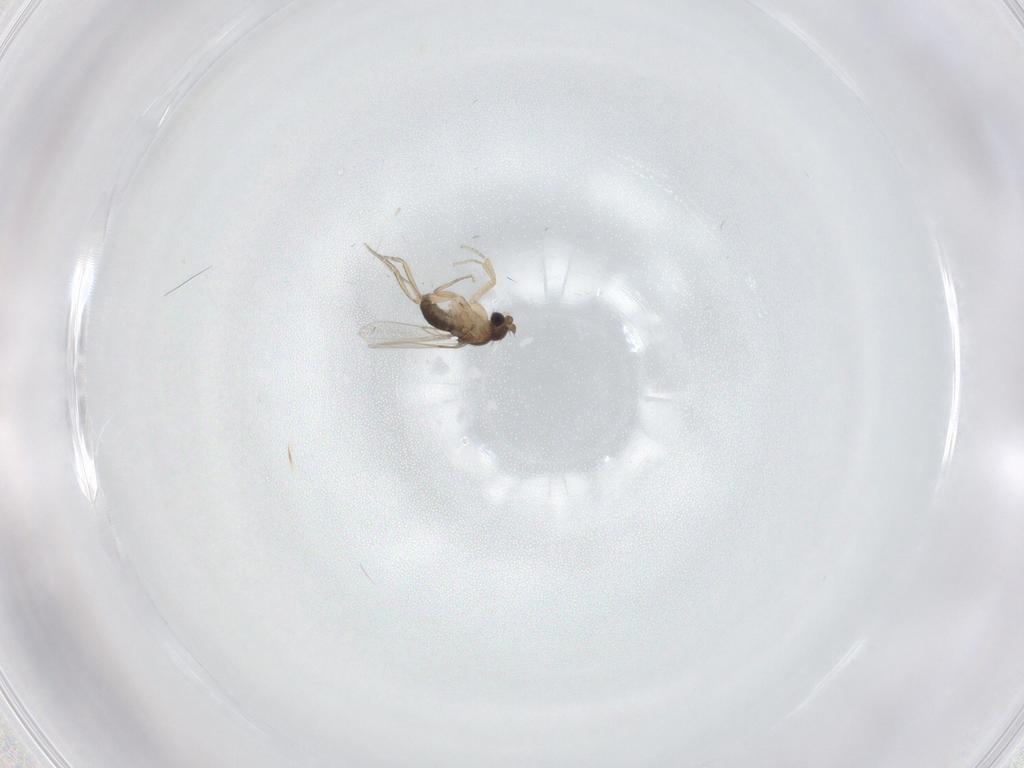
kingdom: Animalia
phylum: Arthropoda
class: Insecta
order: Diptera
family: Phoridae
